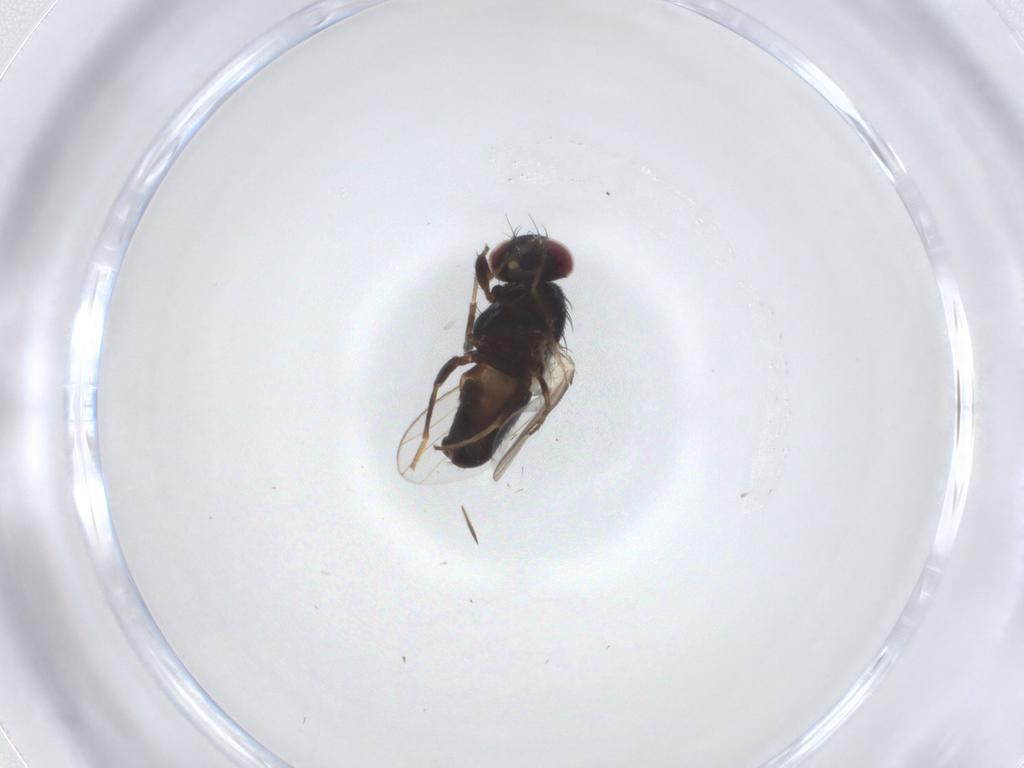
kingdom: Animalia
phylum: Arthropoda
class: Insecta
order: Diptera
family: Carnidae
